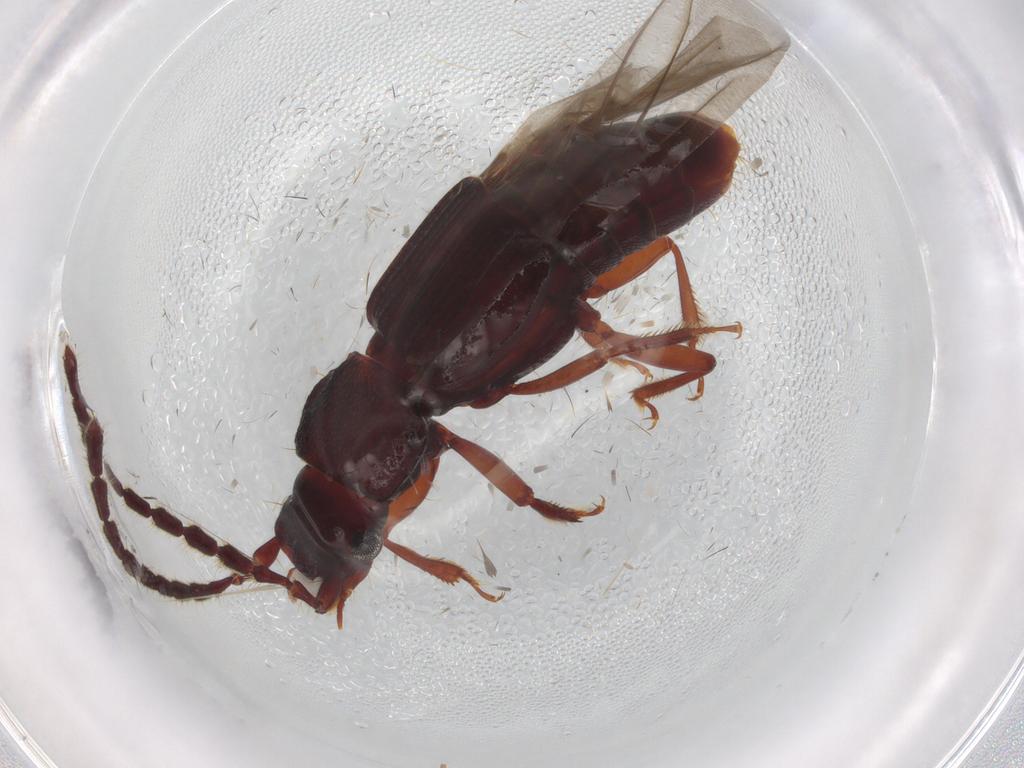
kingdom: Animalia
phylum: Arthropoda
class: Insecta
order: Coleoptera
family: Staphylinidae
